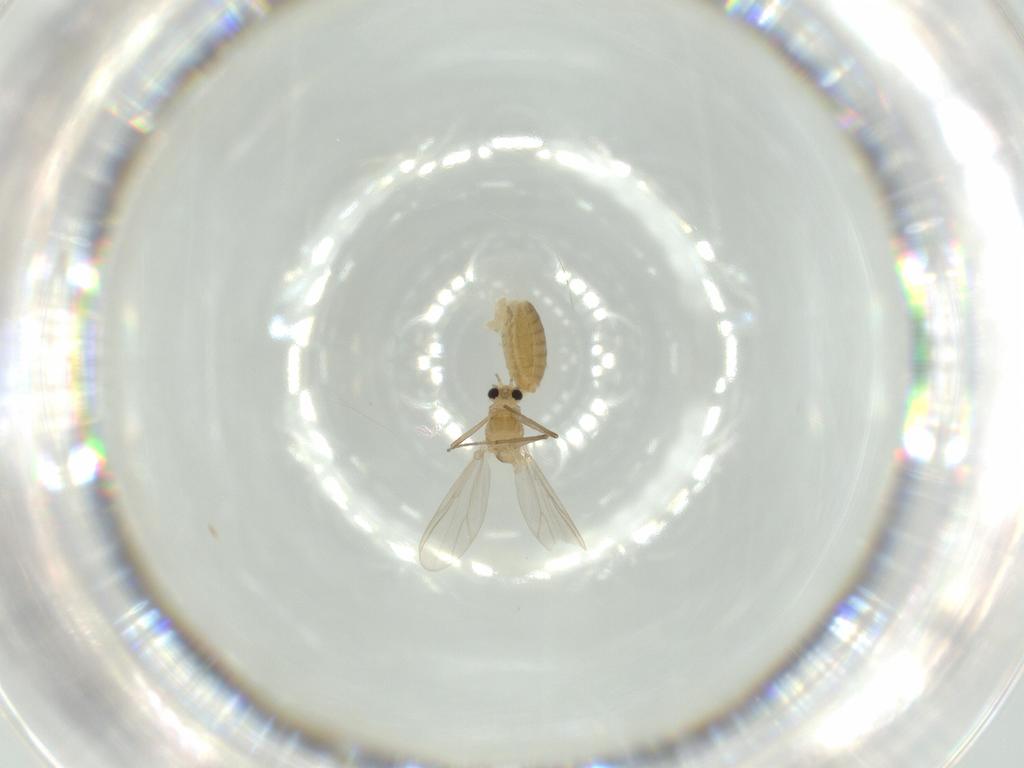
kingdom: Animalia
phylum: Arthropoda
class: Insecta
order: Diptera
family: Chironomidae
